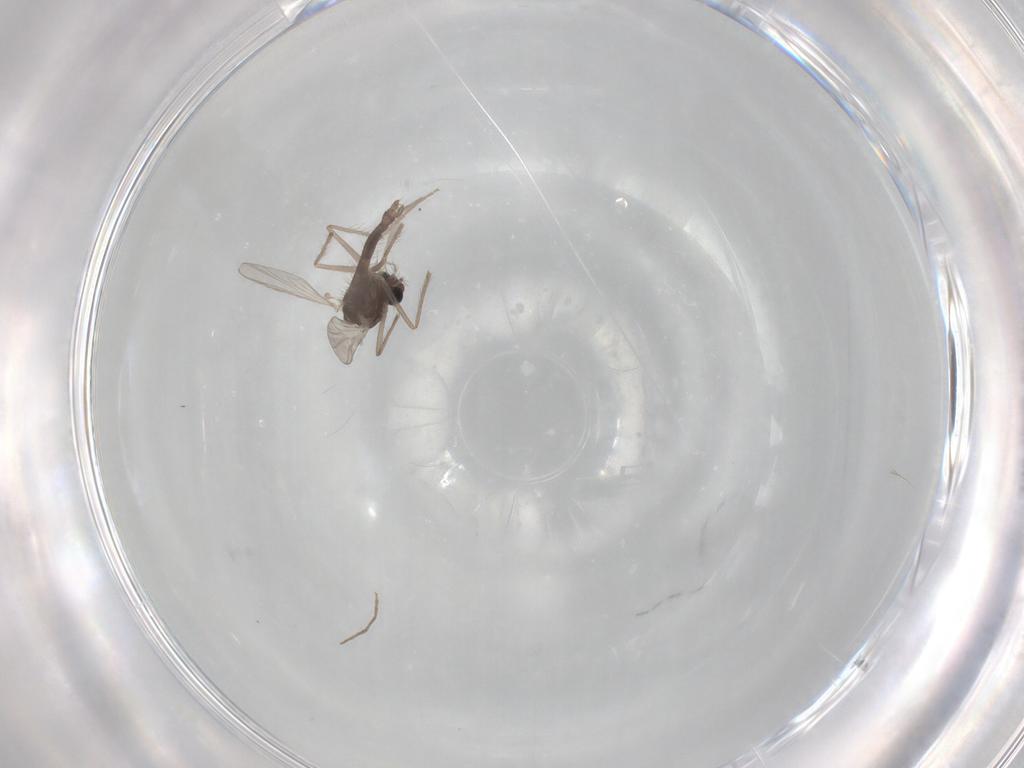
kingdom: Animalia
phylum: Arthropoda
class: Insecta
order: Diptera
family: Chironomidae
